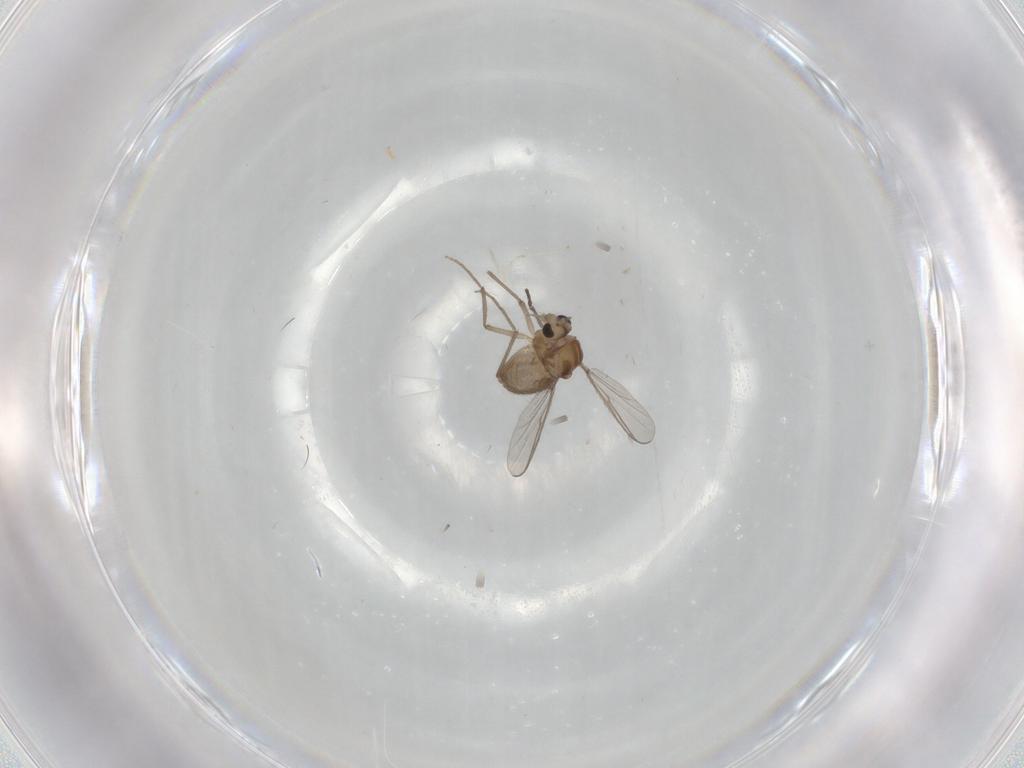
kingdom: Animalia
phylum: Arthropoda
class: Insecta
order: Diptera
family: Chironomidae
